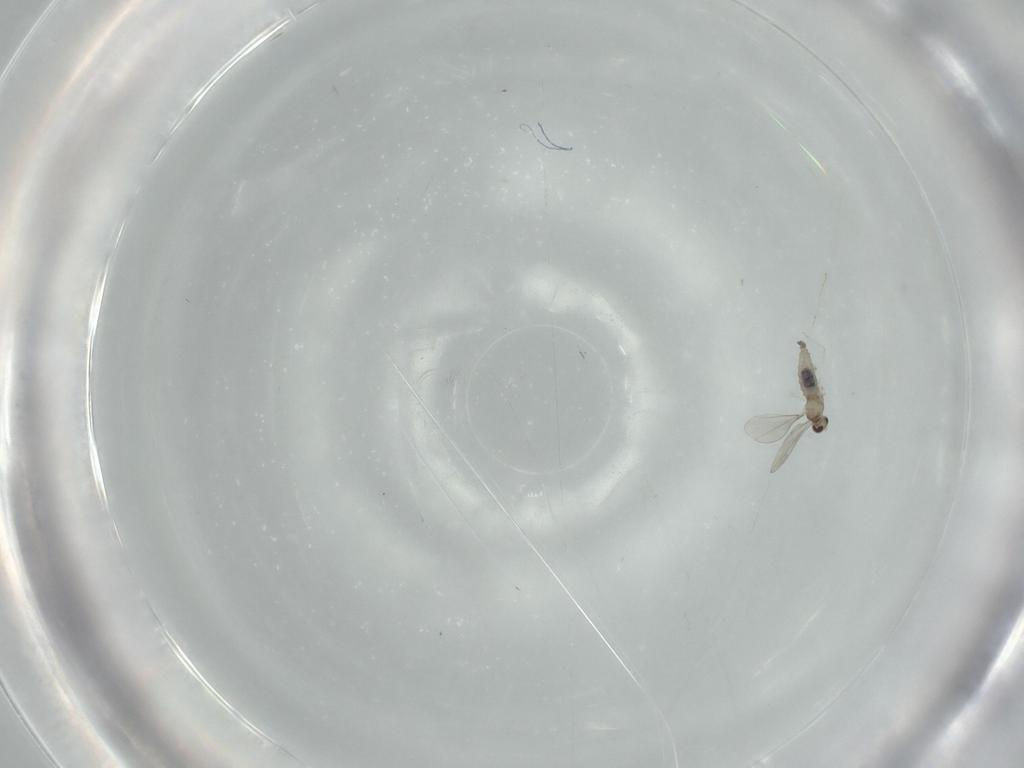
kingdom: Animalia
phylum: Arthropoda
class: Insecta
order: Diptera
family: Cecidomyiidae
